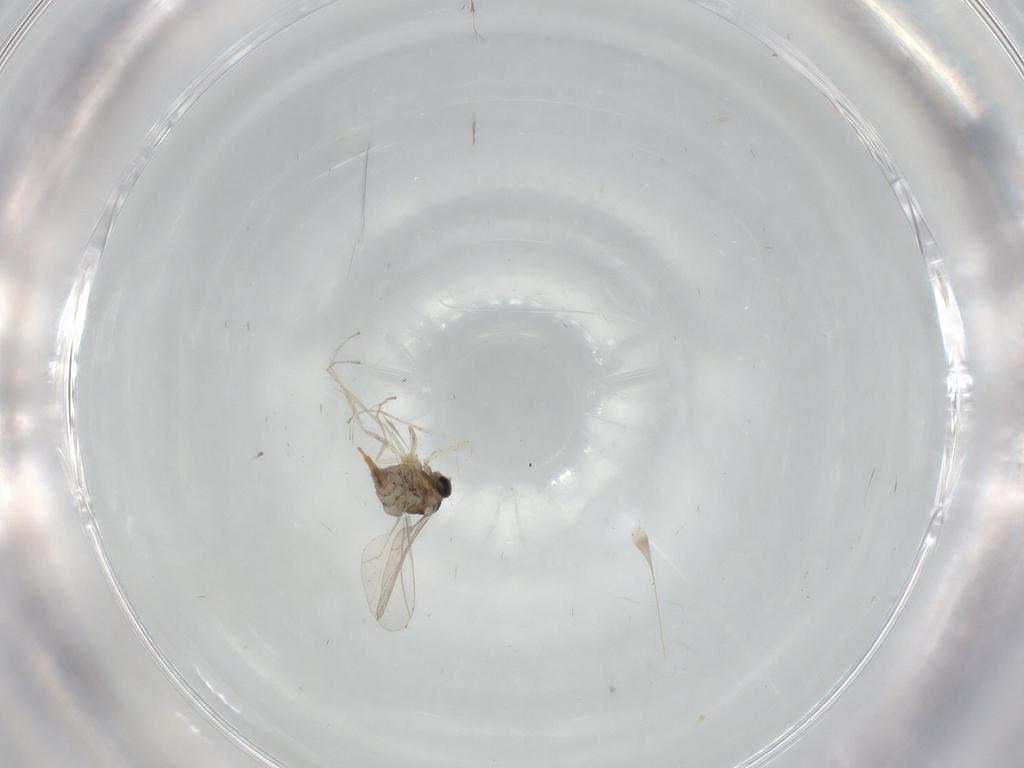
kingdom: Animalia
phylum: Arthropoda
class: Insecta
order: Diptera
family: Cecidomyiidae
